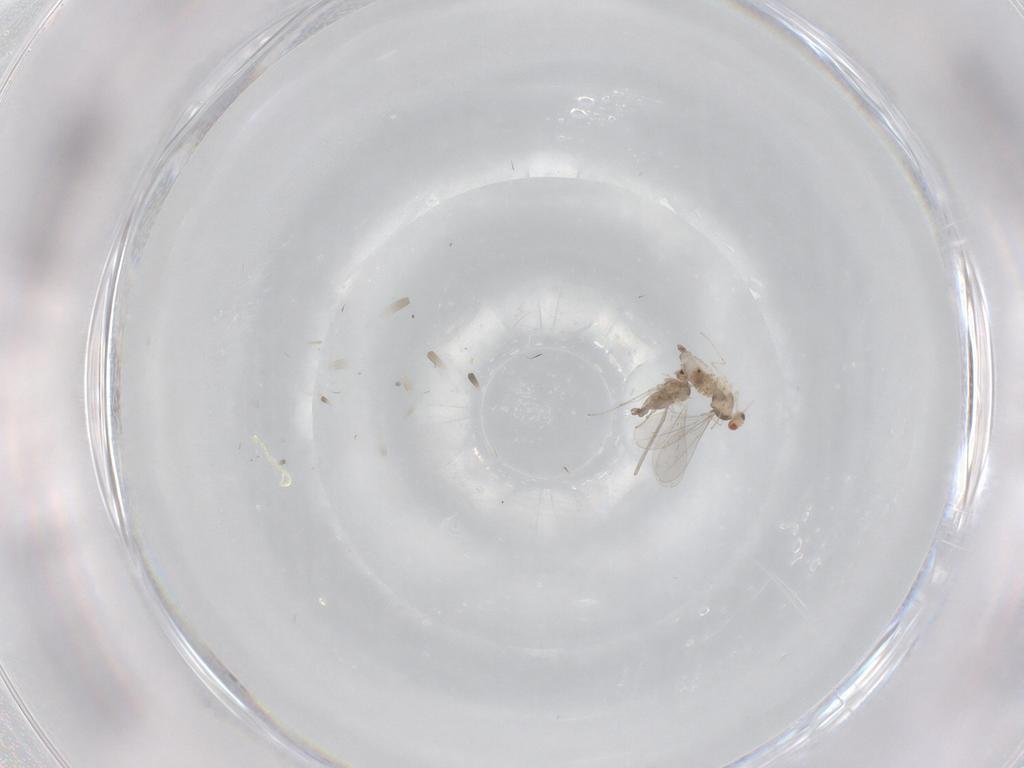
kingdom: Animalia
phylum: Arthropoda
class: Insecta
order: Diptera
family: Cecidomyiidae
